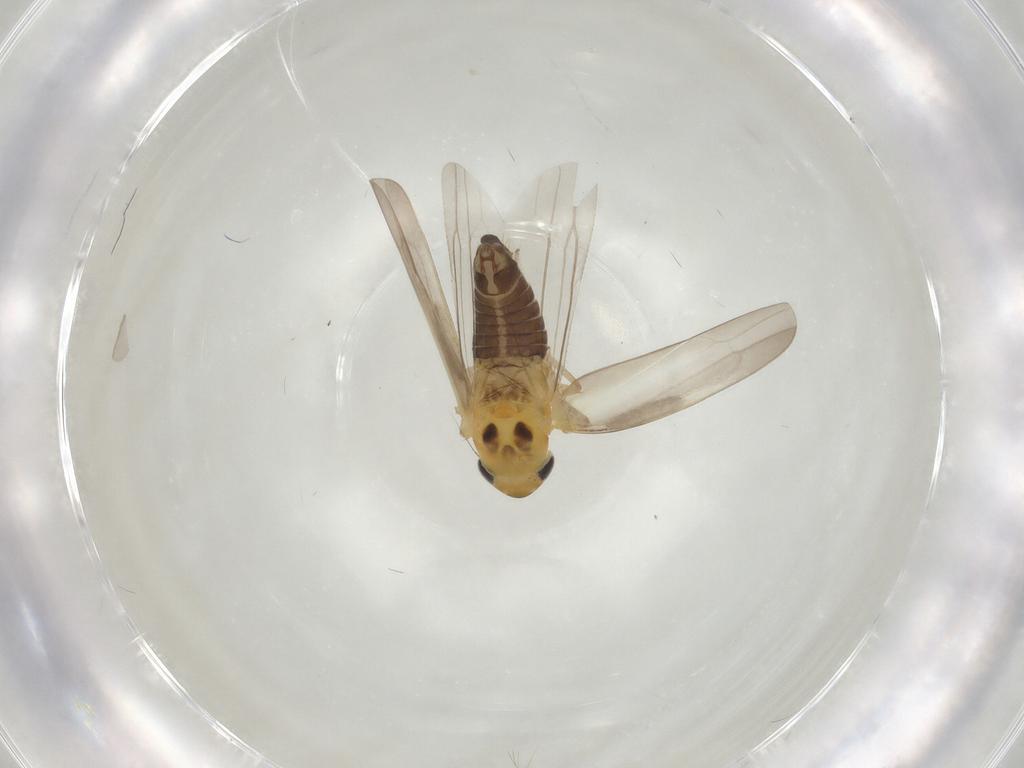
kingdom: Animalia
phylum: Arthropoda
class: Insecta
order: Hemiptera
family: Cicadellidae
